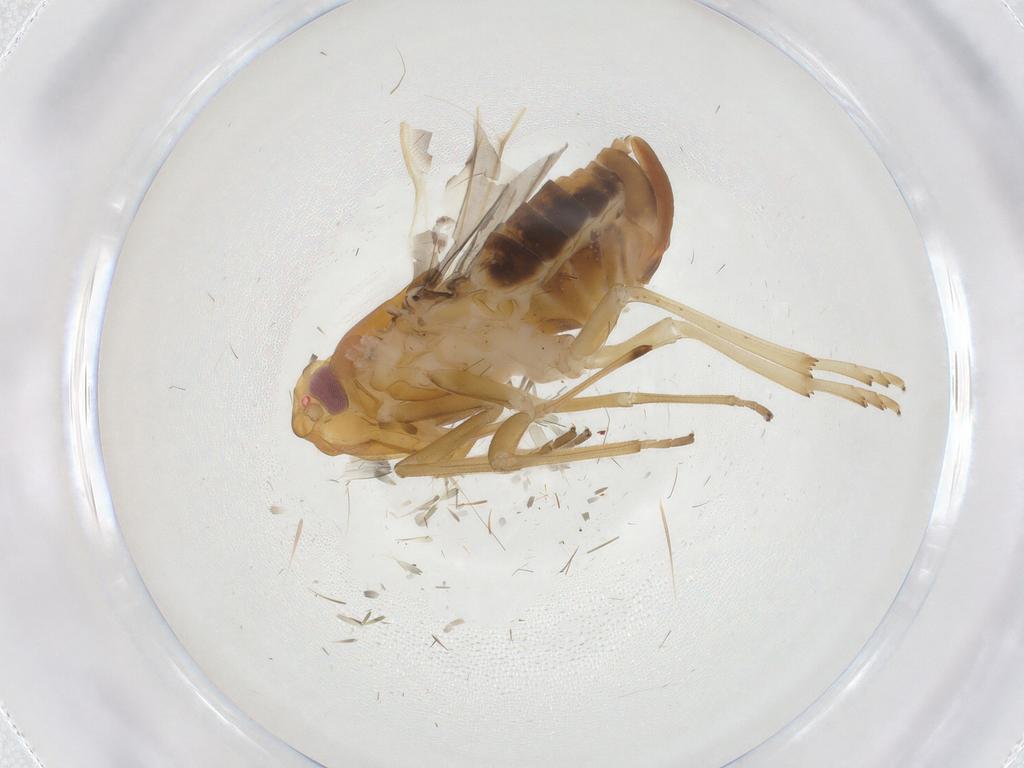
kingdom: Animalia
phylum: Arthropoda
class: Insecta
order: Hemiptera
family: Cixiidae
